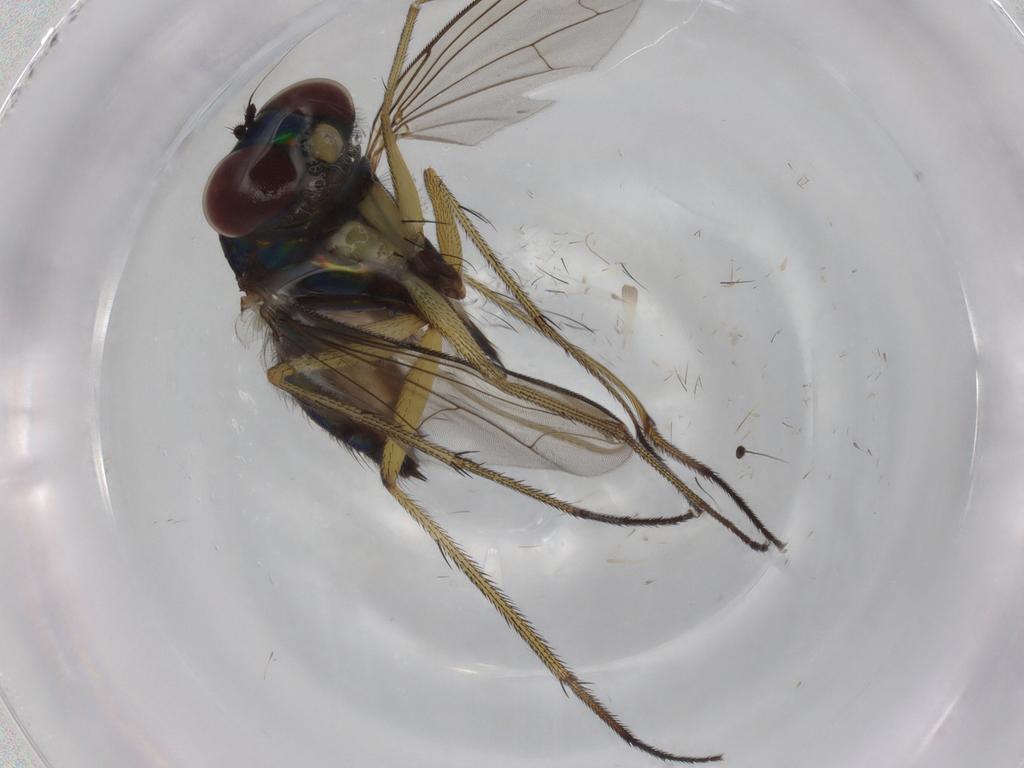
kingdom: Animalia
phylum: Arthropoda
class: Insecta
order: Diptera
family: Dolichopodidae
